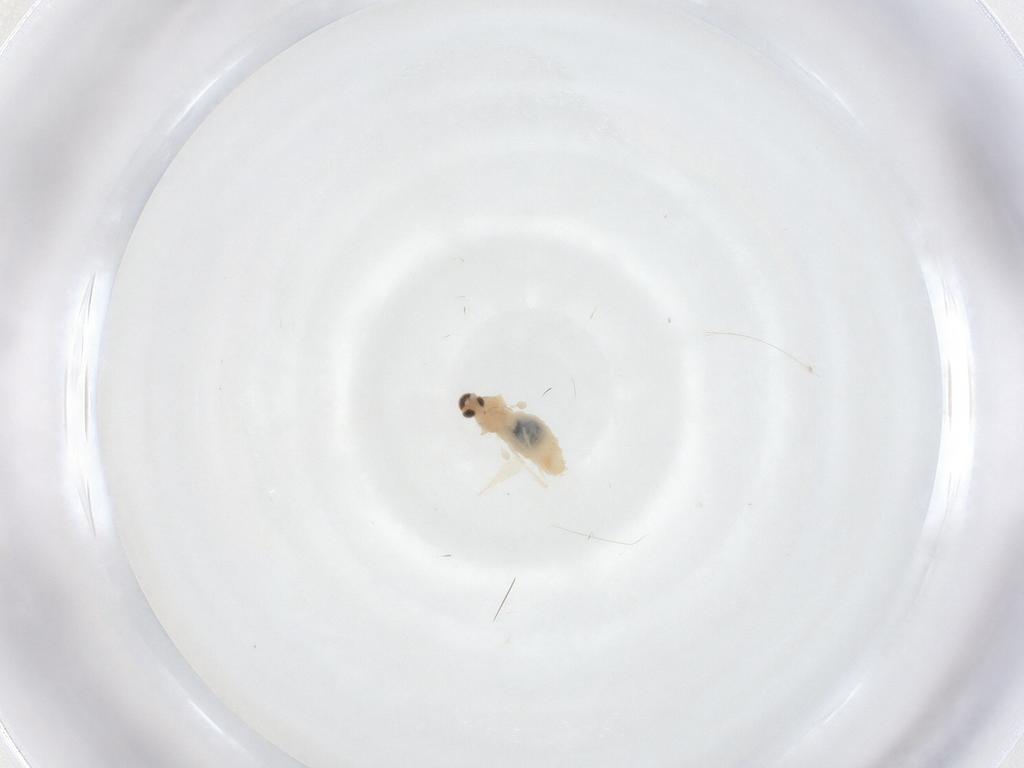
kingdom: Animalia
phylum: Arthropoda
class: Insecta
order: Diptera
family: Cecidomyiidae
